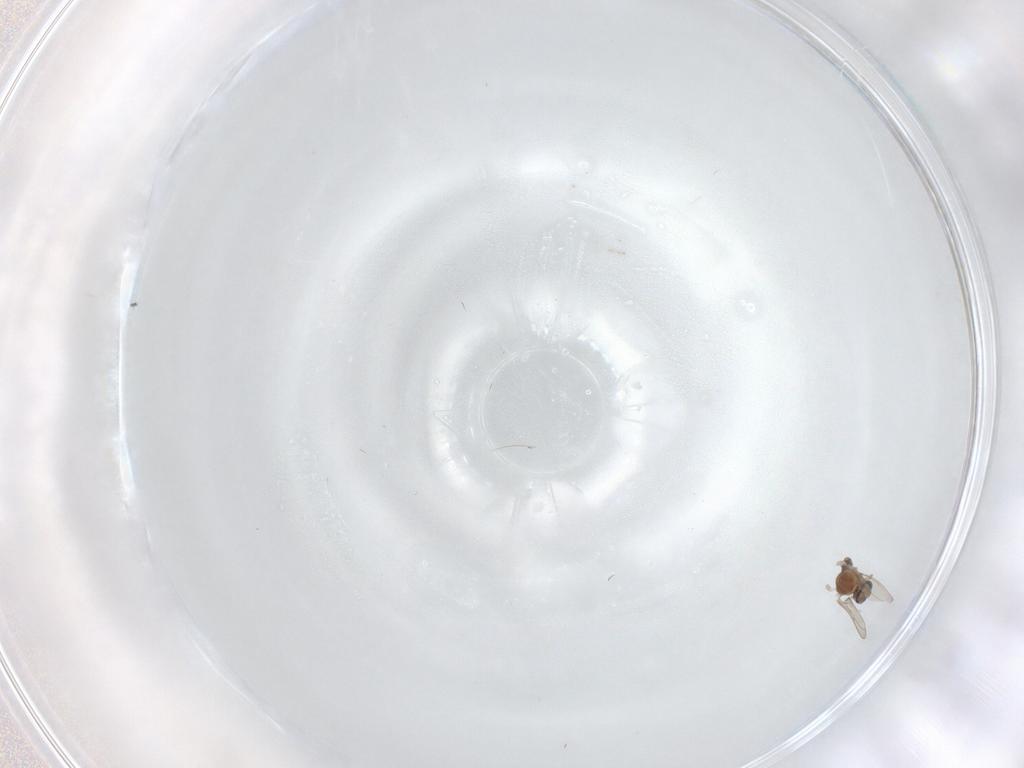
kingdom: Animalia
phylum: Arthropoda
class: Insecta
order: Diptera
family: Cecidomyiidae
